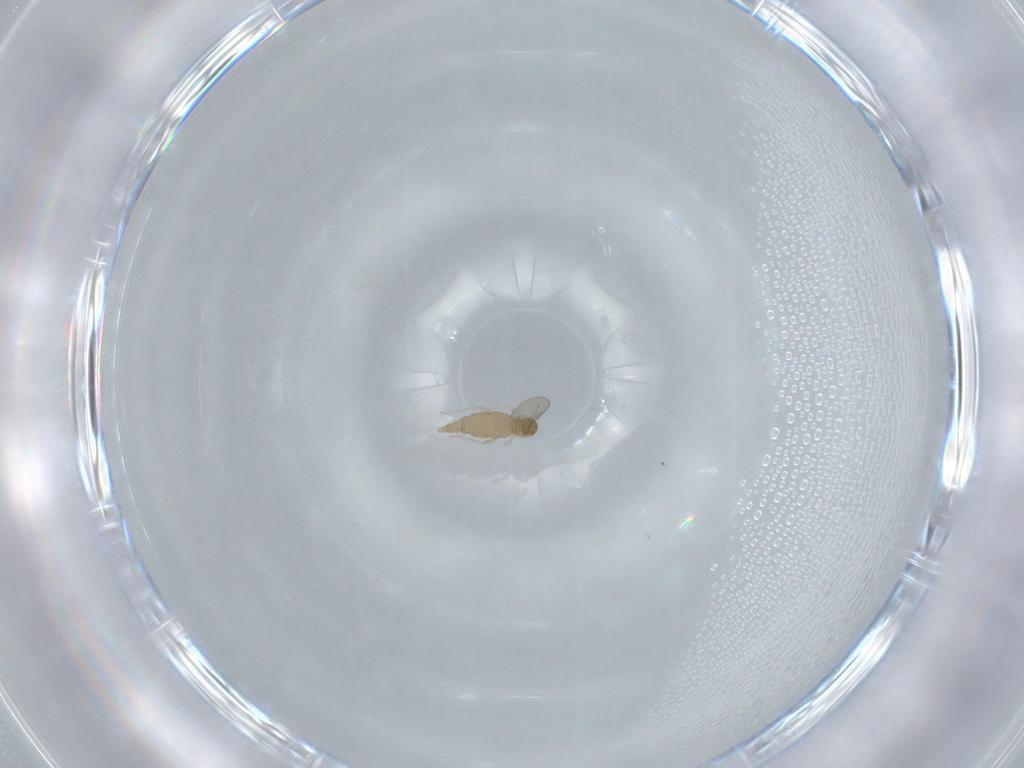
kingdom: Animalia
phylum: Arthropoda
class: Insecta
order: Diptera
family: Cecidomyiidae
